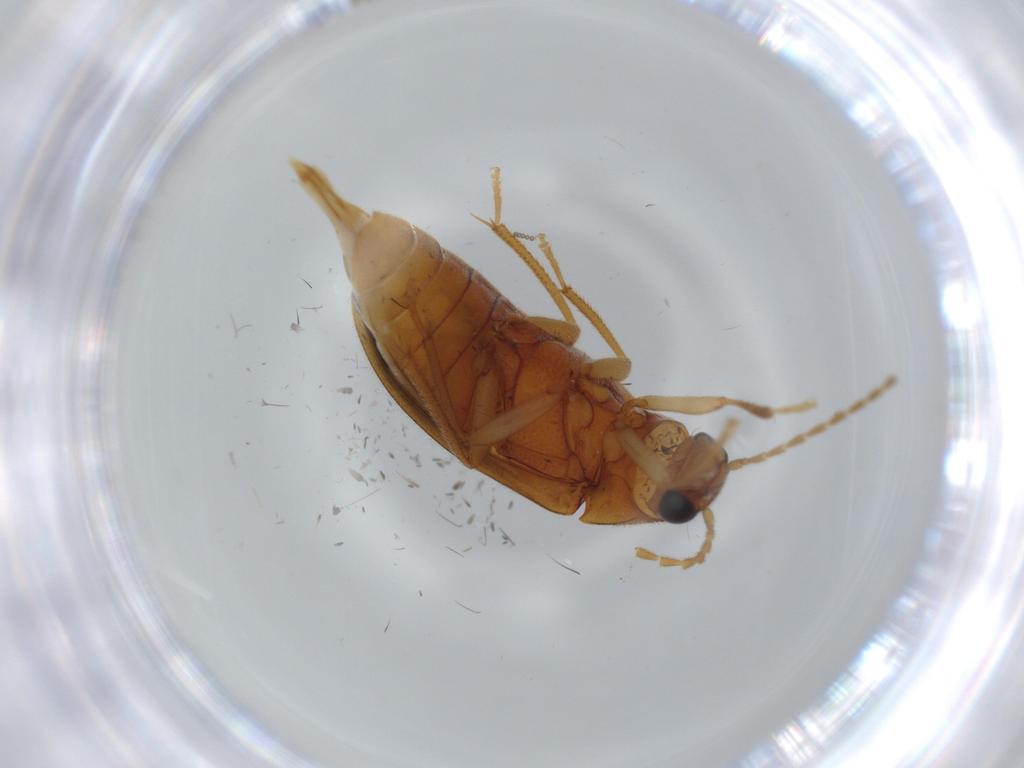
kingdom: Animalia
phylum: Arthropoda
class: Insecta
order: Coleoptera
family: Ptilodactylidae
